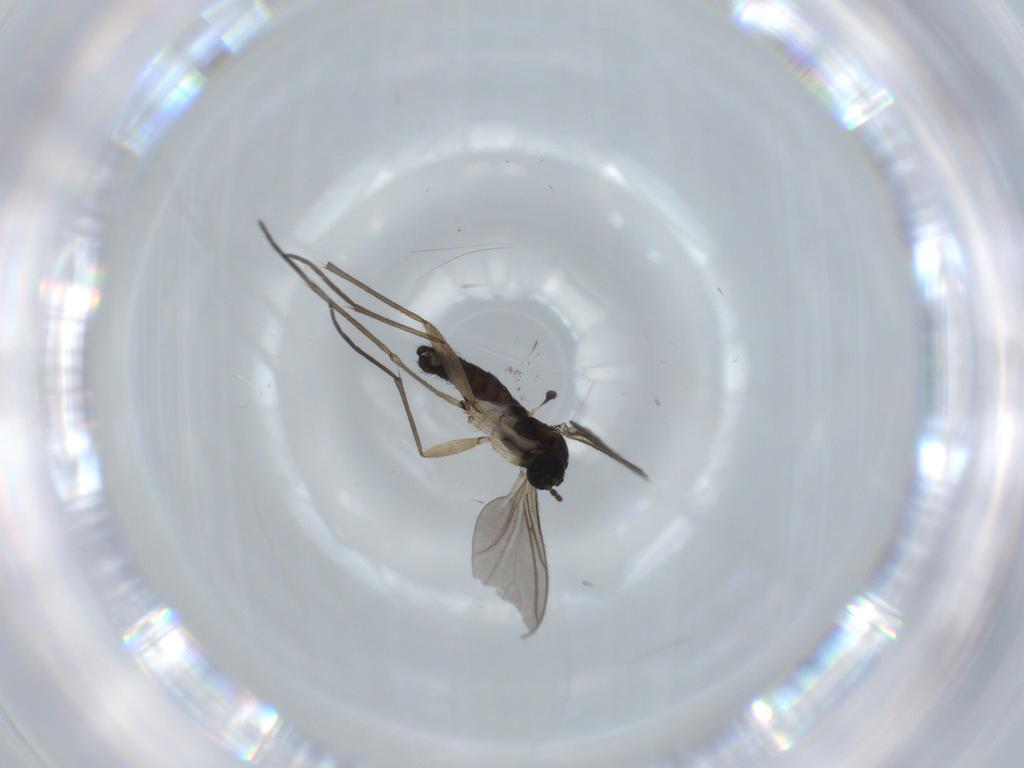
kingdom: Animalia
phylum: Arthropoda
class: Insecta
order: Diptera
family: Sciaridae
